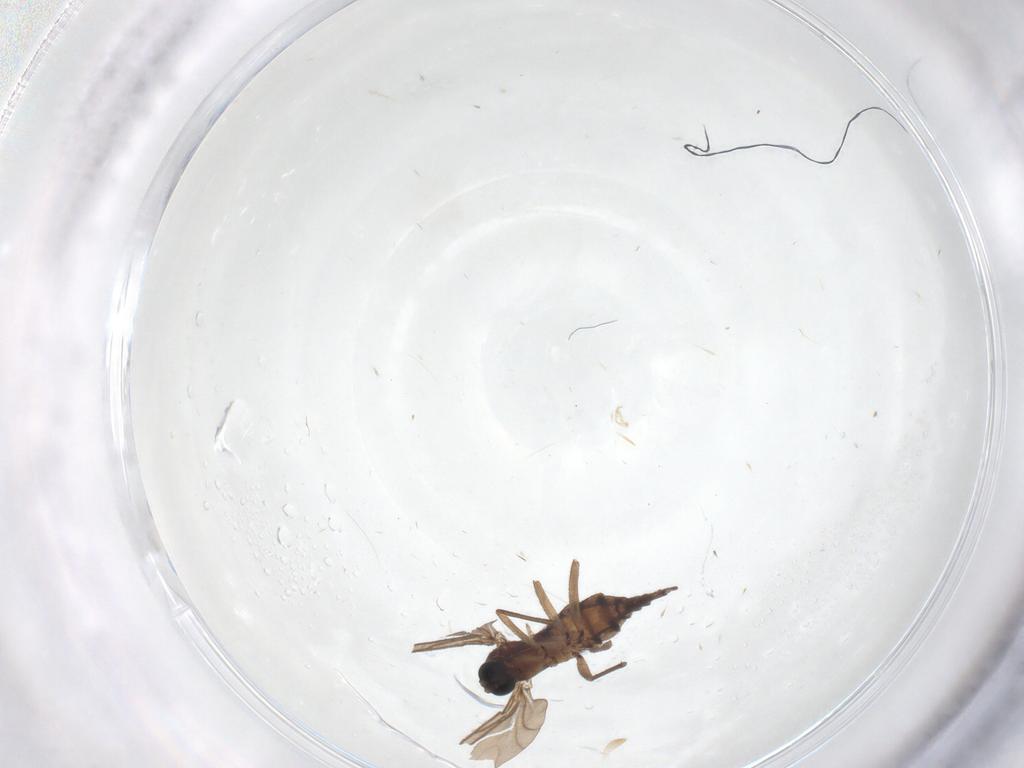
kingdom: Animalia
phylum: Arthropoda
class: Insecta
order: Diptera
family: Sciaridae
